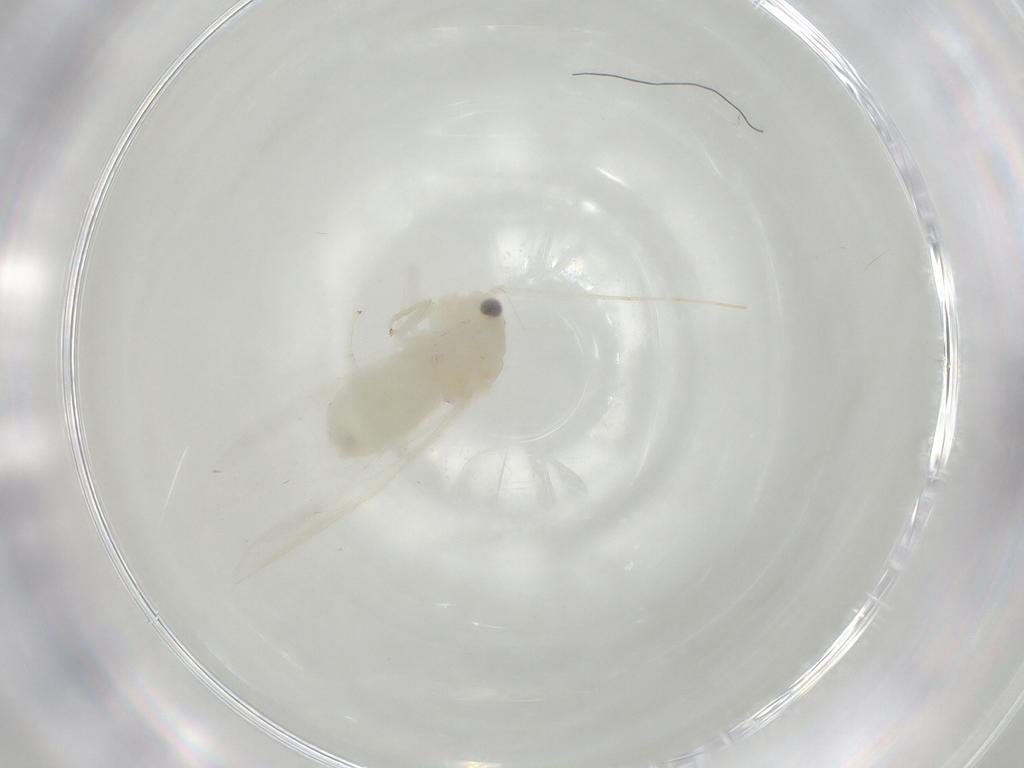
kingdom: Animalia
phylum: Arthropoda
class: Insecta
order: Psocodea
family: Caeciliusidae
